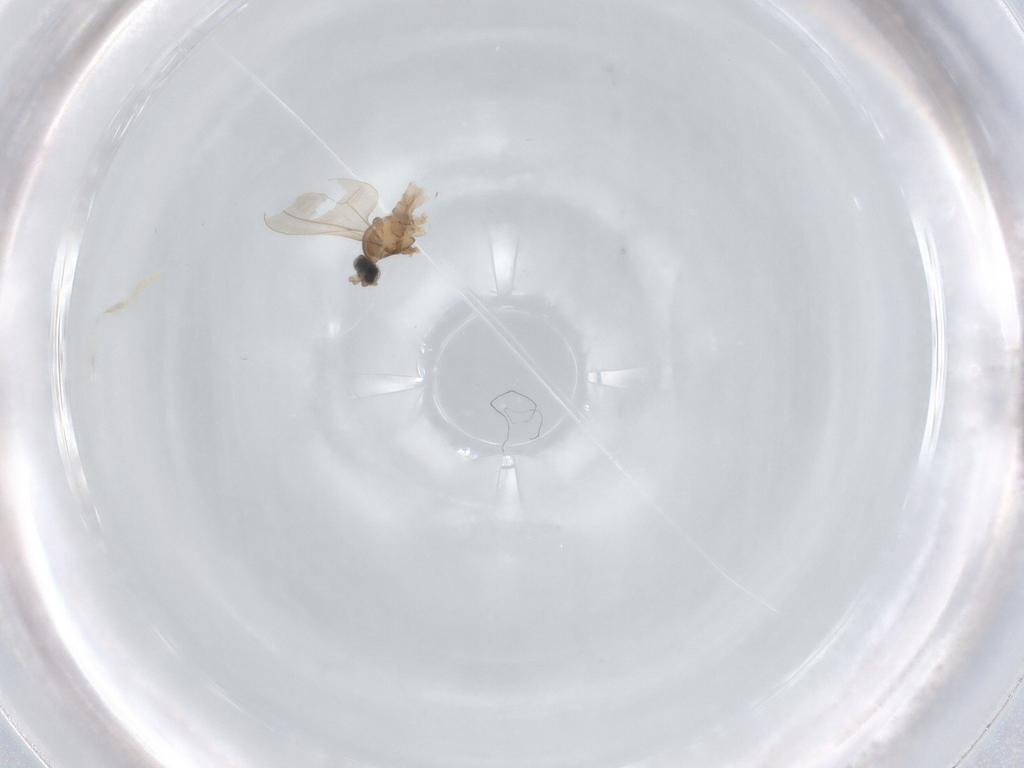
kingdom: Animalia
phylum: Arthropoda
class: Insecta
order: Diptera
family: Cecidomyiidae
